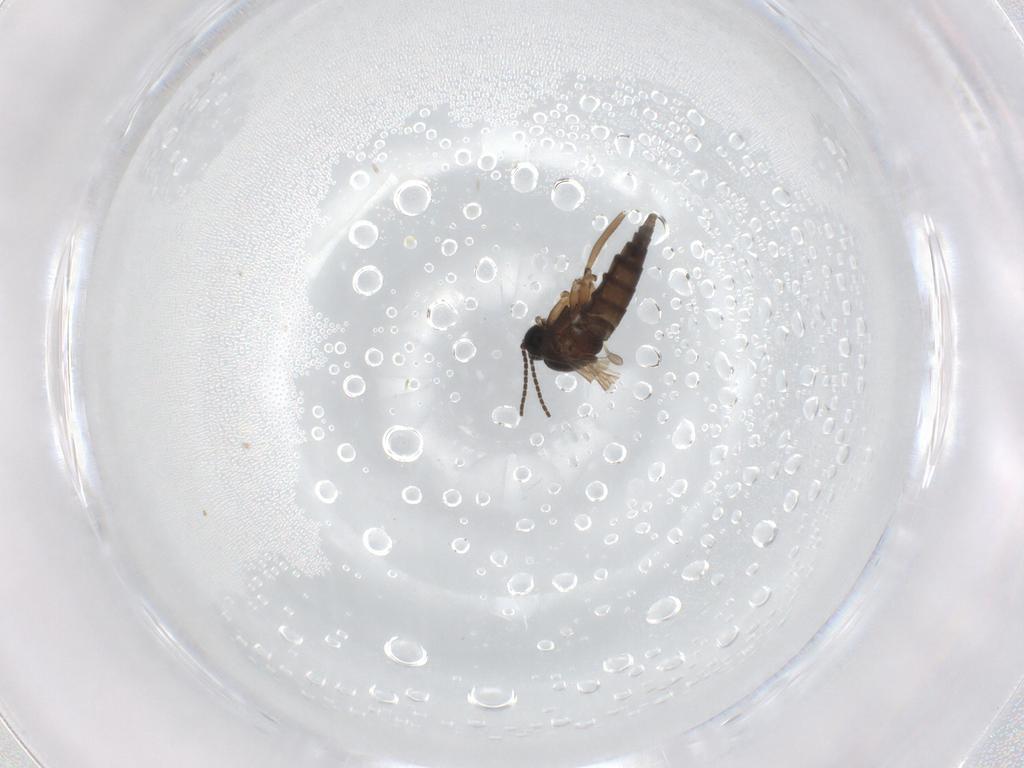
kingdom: Animalia
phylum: Arthropoda
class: Insecta
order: Diptera
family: Sciaridae
